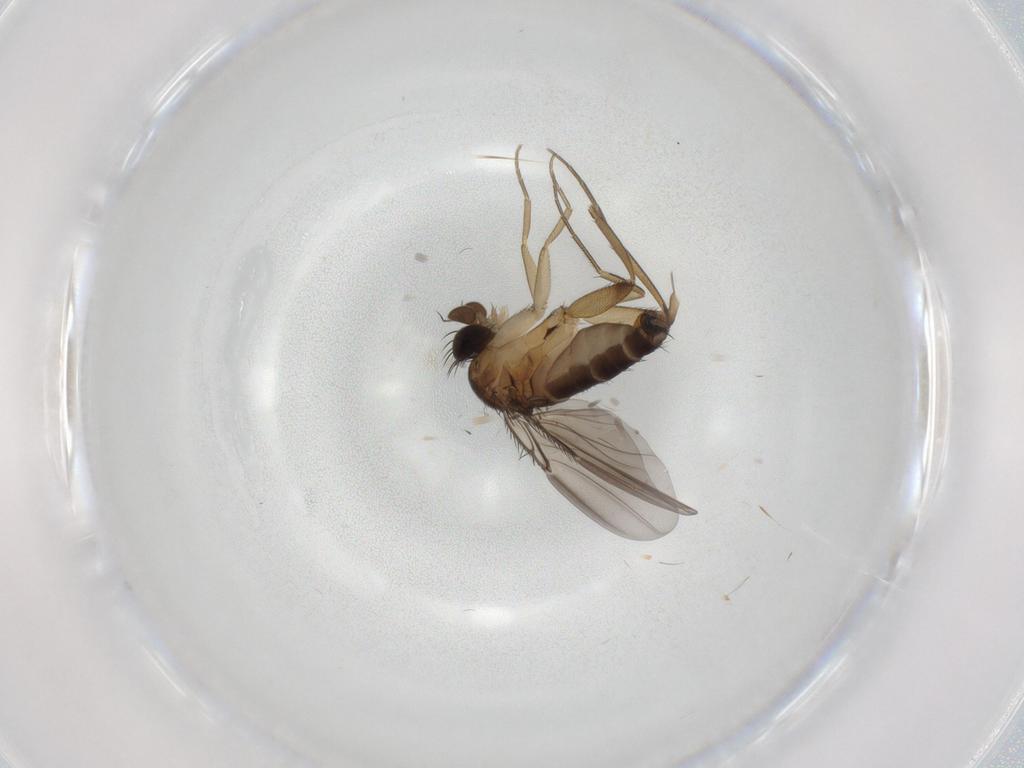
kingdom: Animalia
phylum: Arthropoda
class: Insecta
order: Diptera
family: Phoridae
